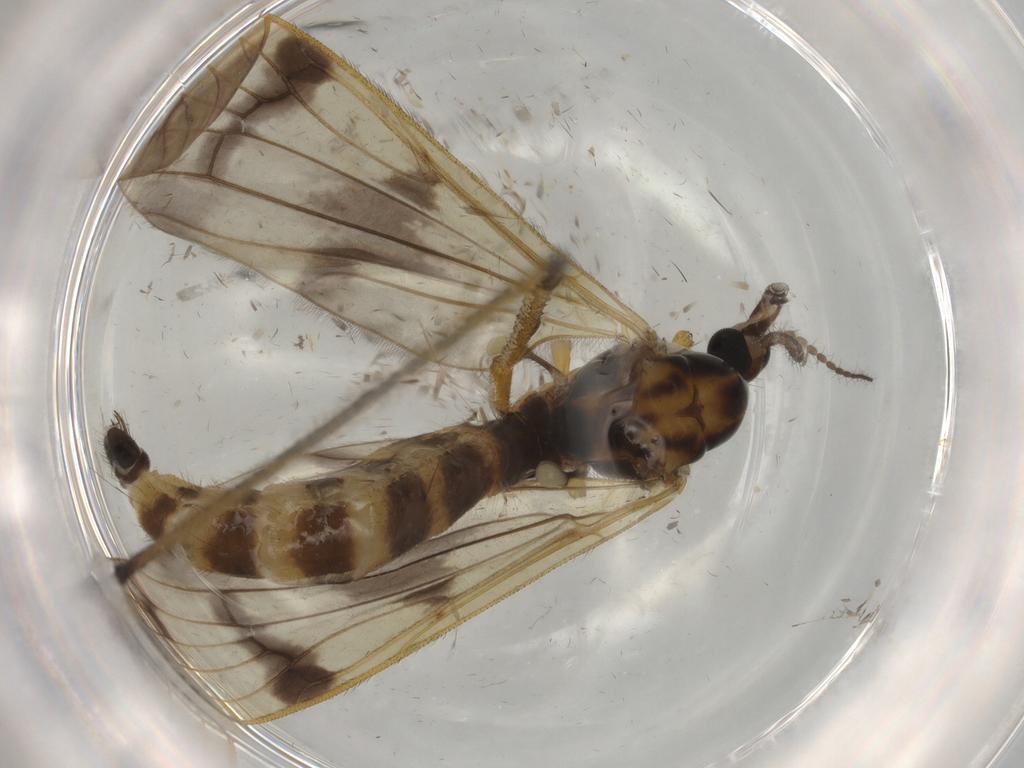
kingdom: Animalia
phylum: Arthropoda
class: Insecta
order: Diptera
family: Limoniidae
